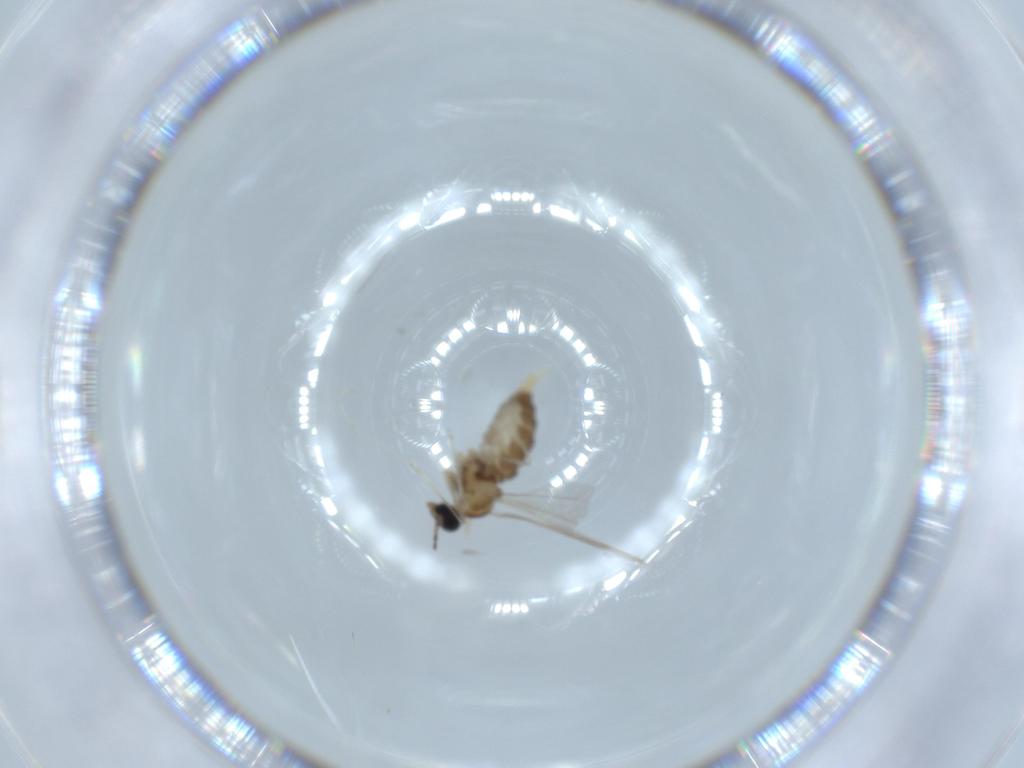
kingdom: Animalia
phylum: Arthropoda
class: Insecta
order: Diptera
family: Cecidomyiidae
